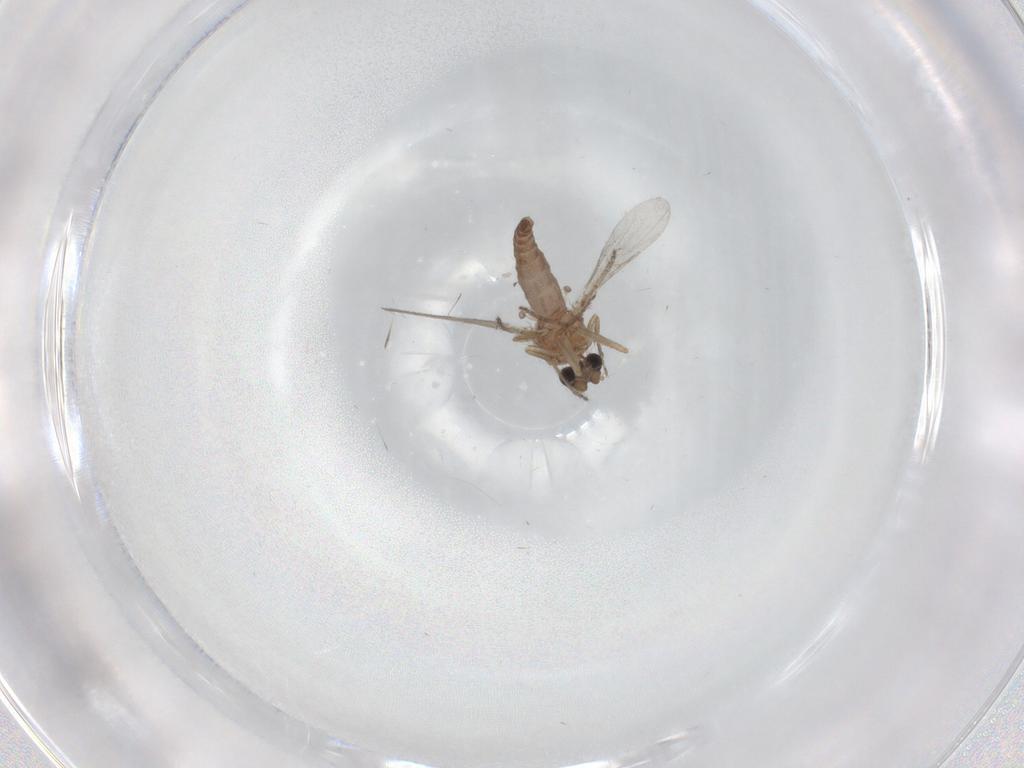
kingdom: Animalia
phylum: Arthropoda
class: Insecta
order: Diptera
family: Ceratopogonidae
